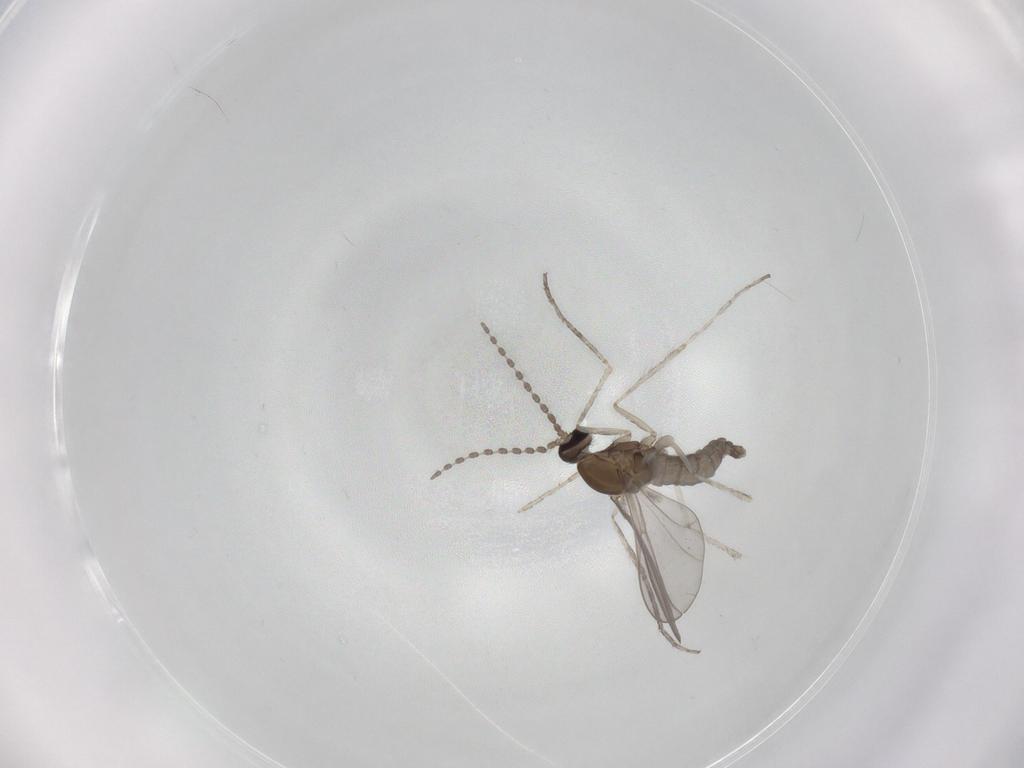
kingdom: Animalia
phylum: Arthropoda
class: Insecta
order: Diptera
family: Cecidomyiidae
